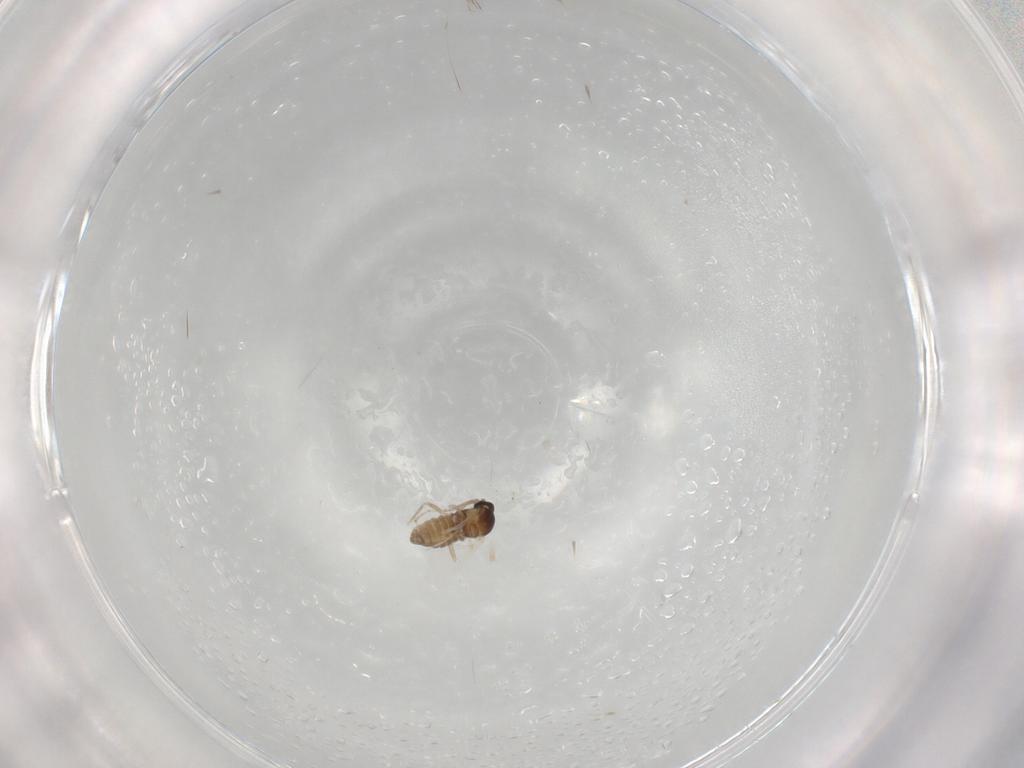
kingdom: Animalia
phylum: Arthropoda
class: Insecta
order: Diptera
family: Cecidomyiidae
